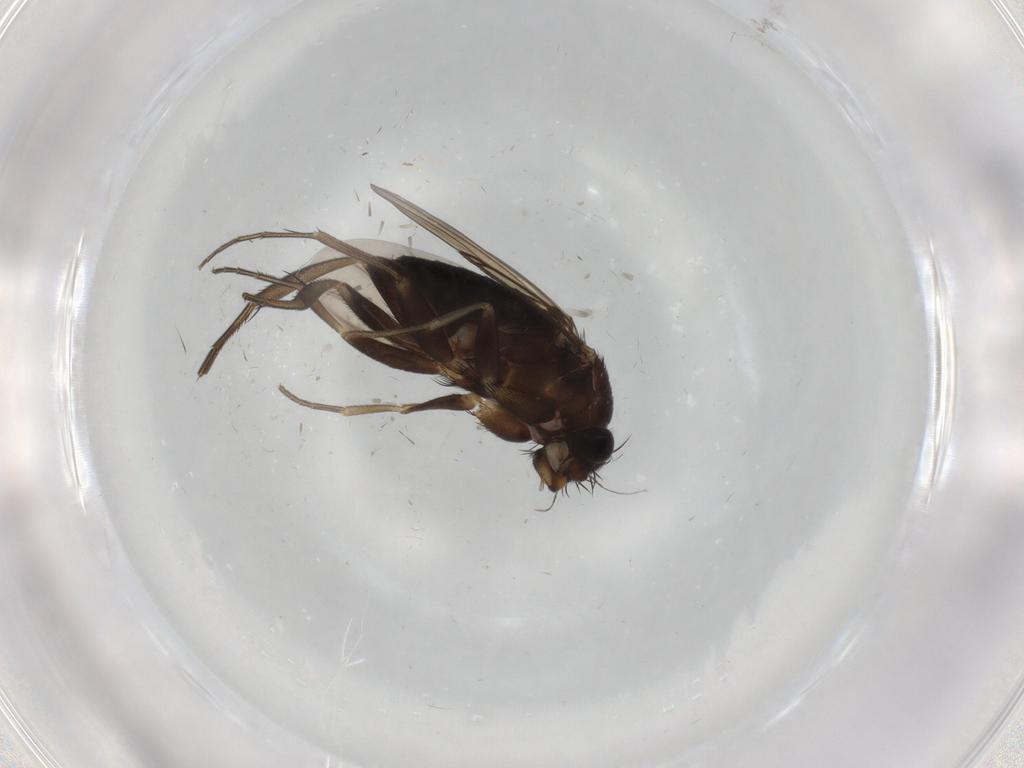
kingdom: Animalia
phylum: Arthropoda
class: Insecta
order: Diptera
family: Phoridae
